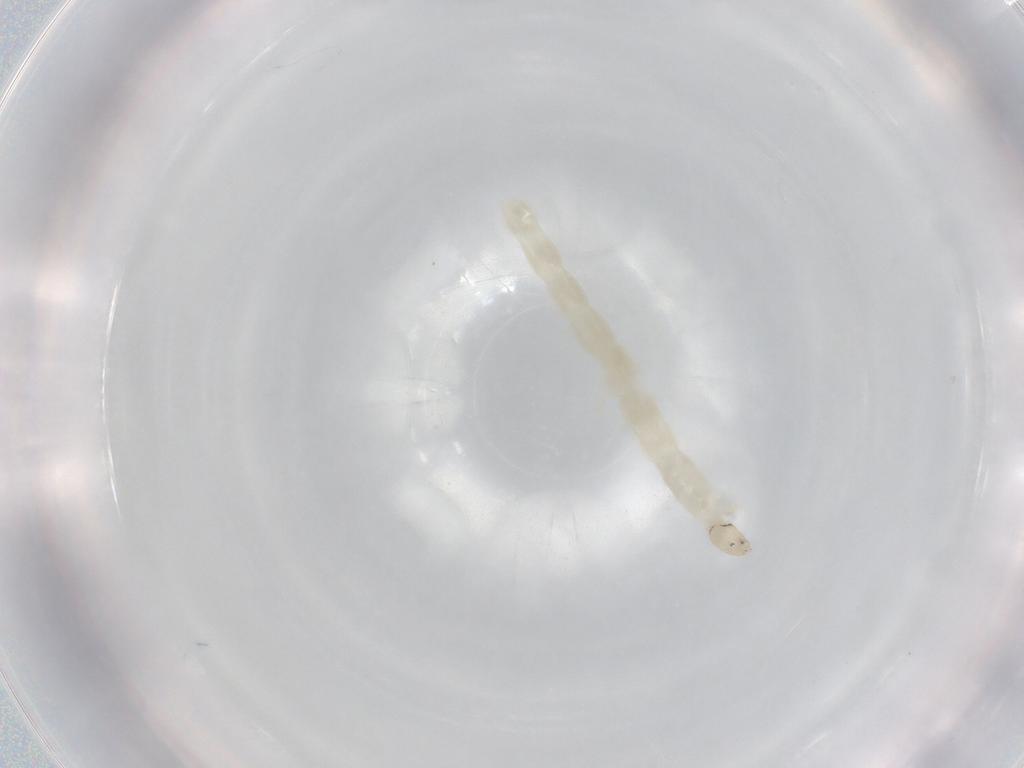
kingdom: Animalia
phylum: Arthropoda
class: Insecta
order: Diptera
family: Chironomidae
